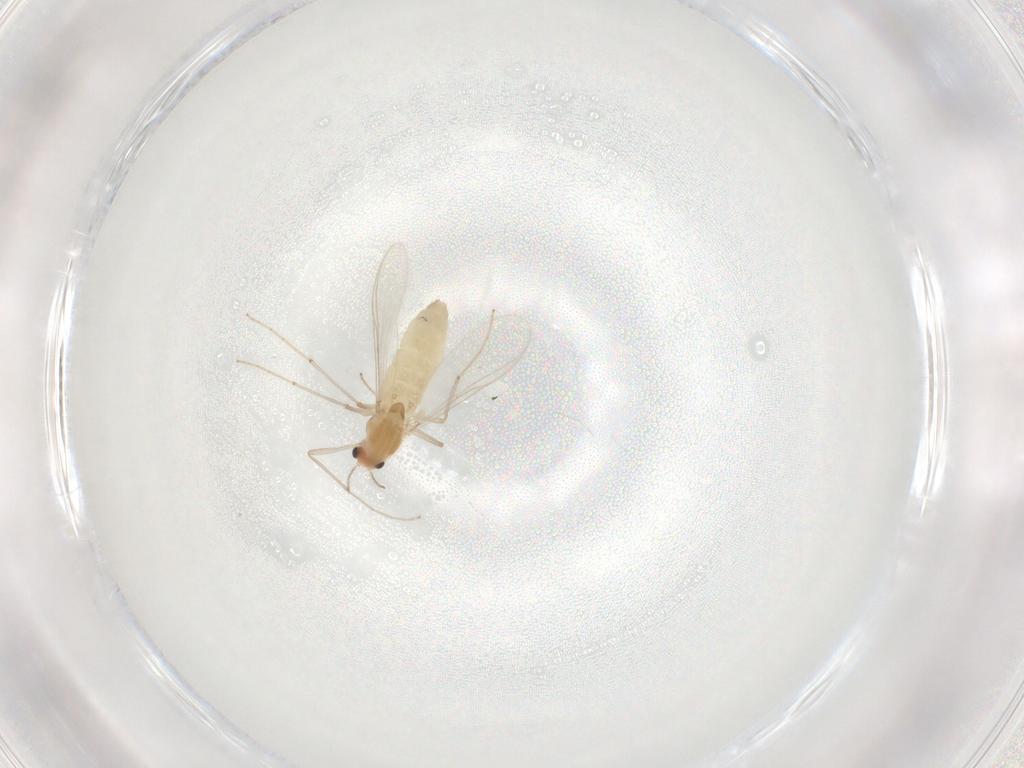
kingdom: Animalia
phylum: Arthropoda
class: Insecta
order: Diptera
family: Chironomidae
